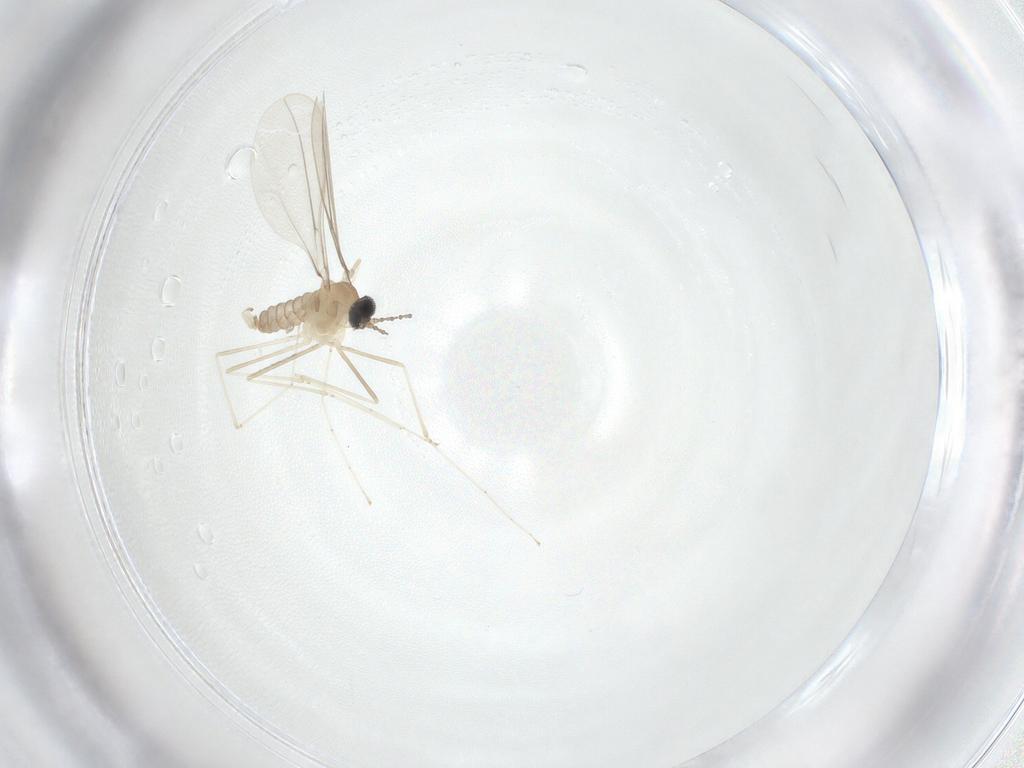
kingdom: Animalia
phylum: Arthropoda
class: Insecta
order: Diptera
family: Cecidomyiidae
